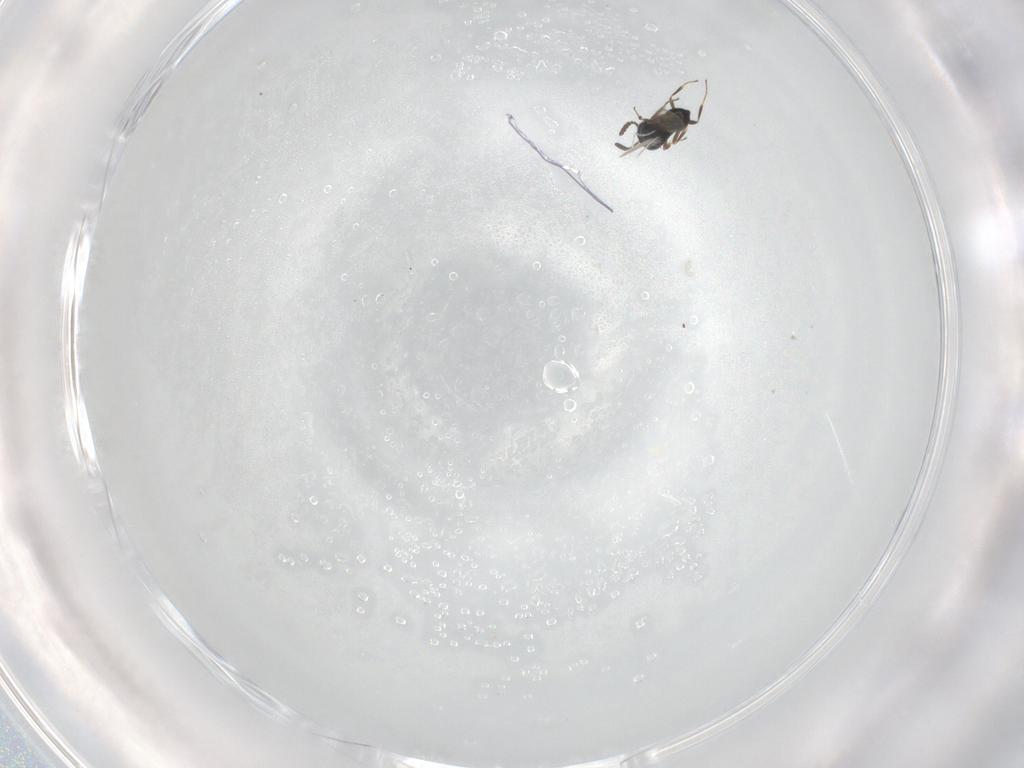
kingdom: Animalia
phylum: Arthropoda
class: Insecta
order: Hymenoptera
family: Scelionidae
